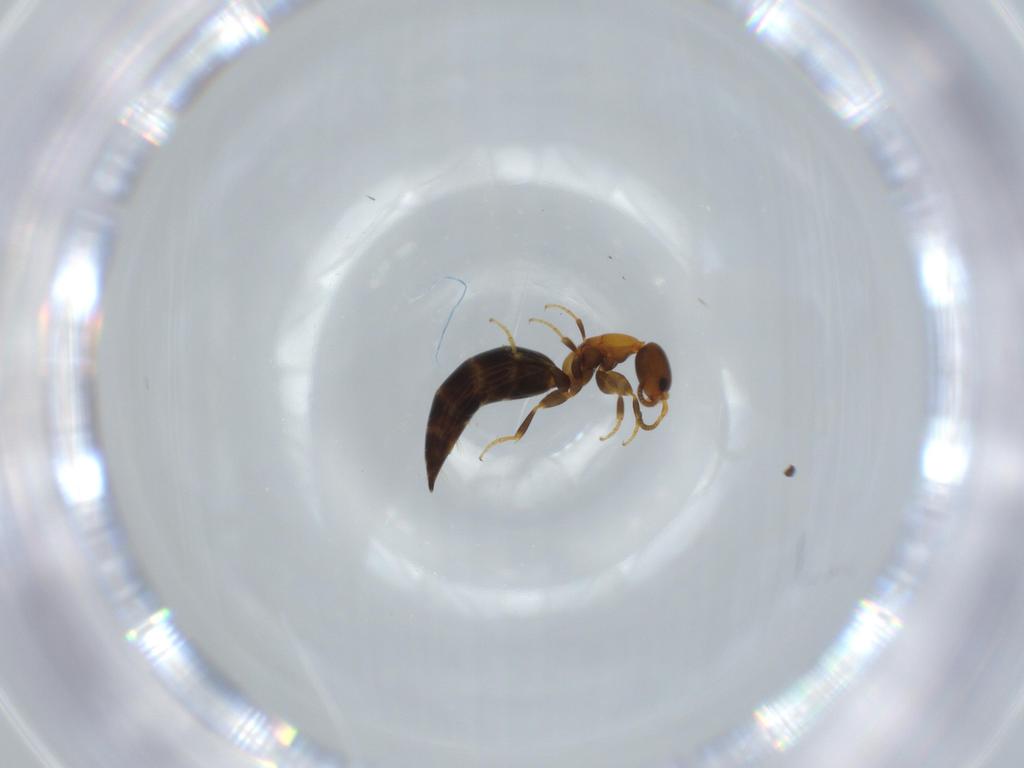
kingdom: Animalia
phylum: Arthropoda
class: Insecta
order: Hymenoptera
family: Bethylidae
